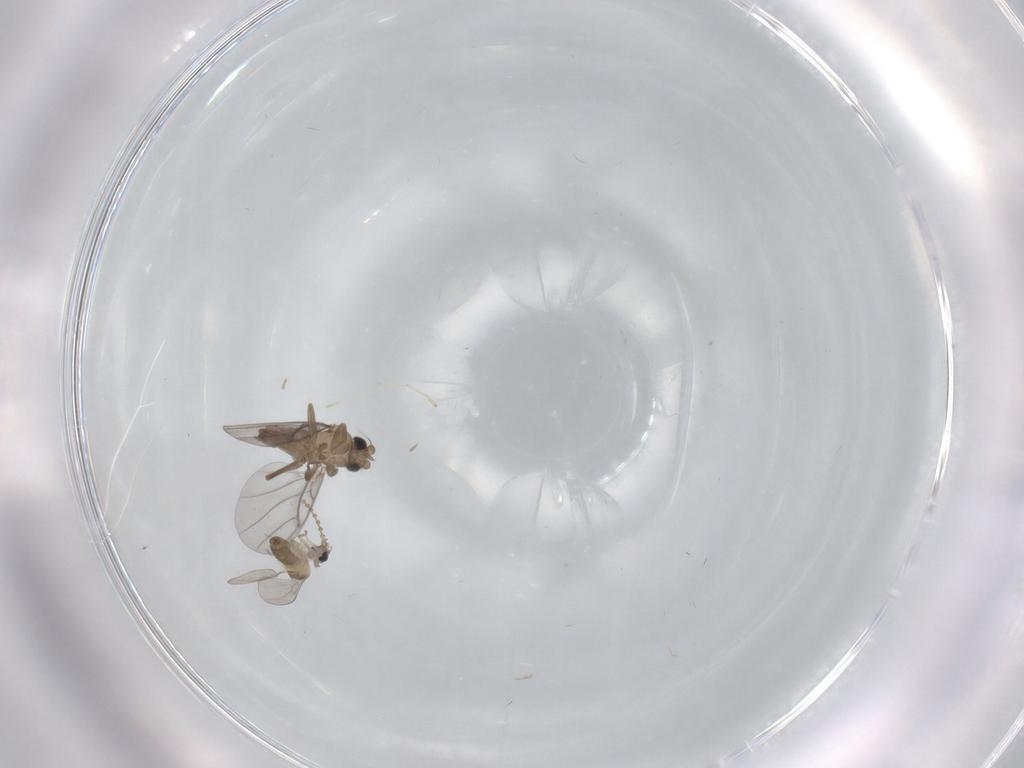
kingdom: Animalia
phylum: Arthropoda
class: Insecta
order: Diptera
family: Cecidomyiidae
